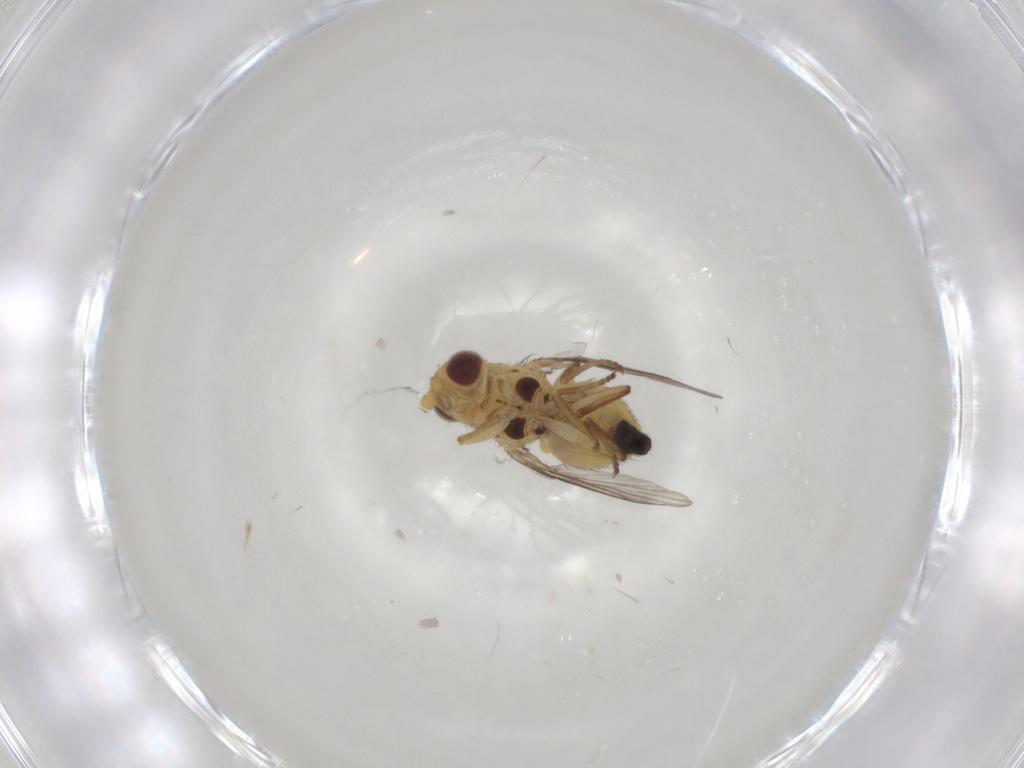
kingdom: Animalia
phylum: Arthropoda
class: Insecta
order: Diptera
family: Agromyzidae
